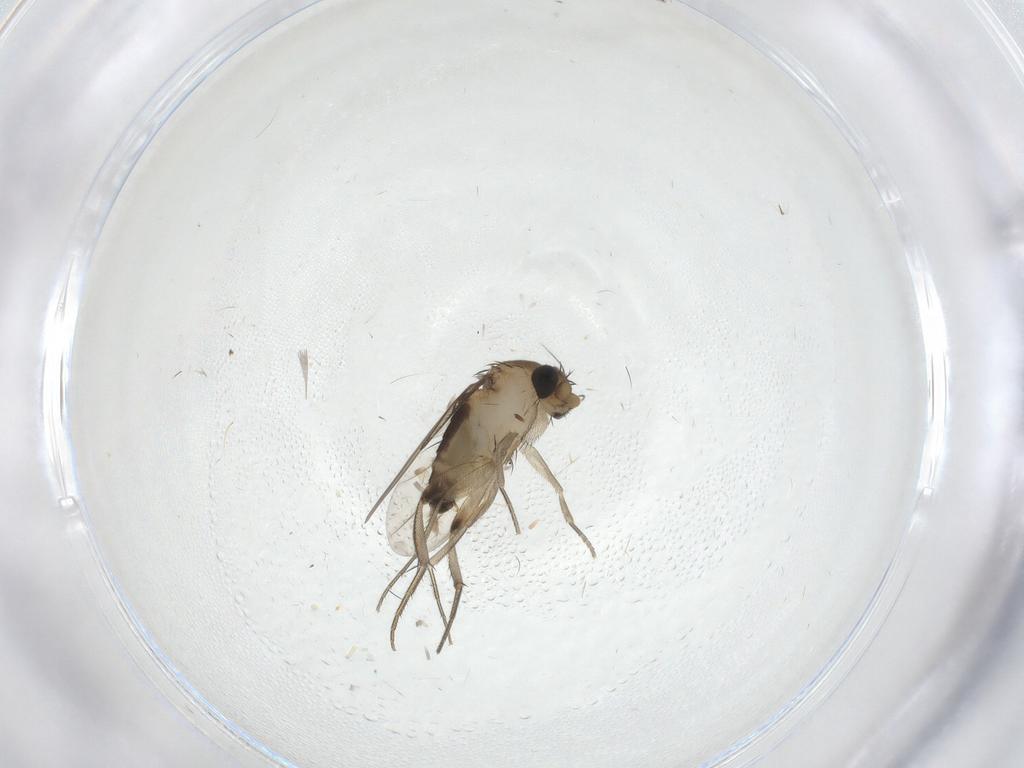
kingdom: Animalia
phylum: Arthropoda
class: Insecta
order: Diptera
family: Phoridae
